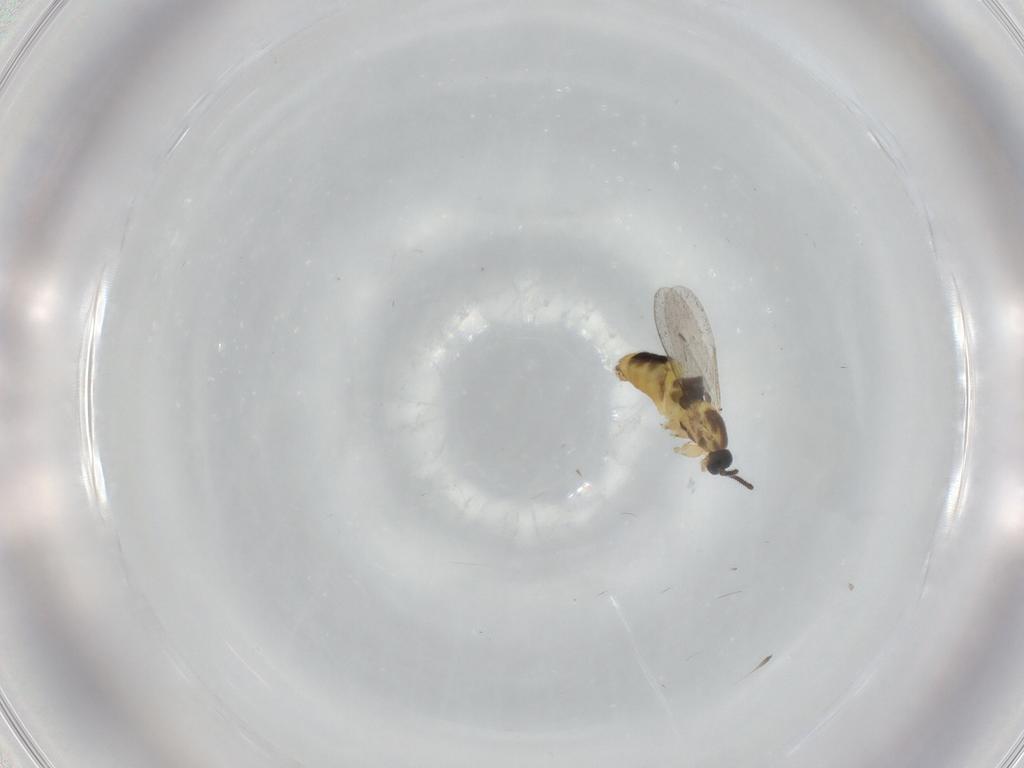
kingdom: Animalia
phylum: Arthropoda
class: Insecta
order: Diptera
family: Scatopsidae
